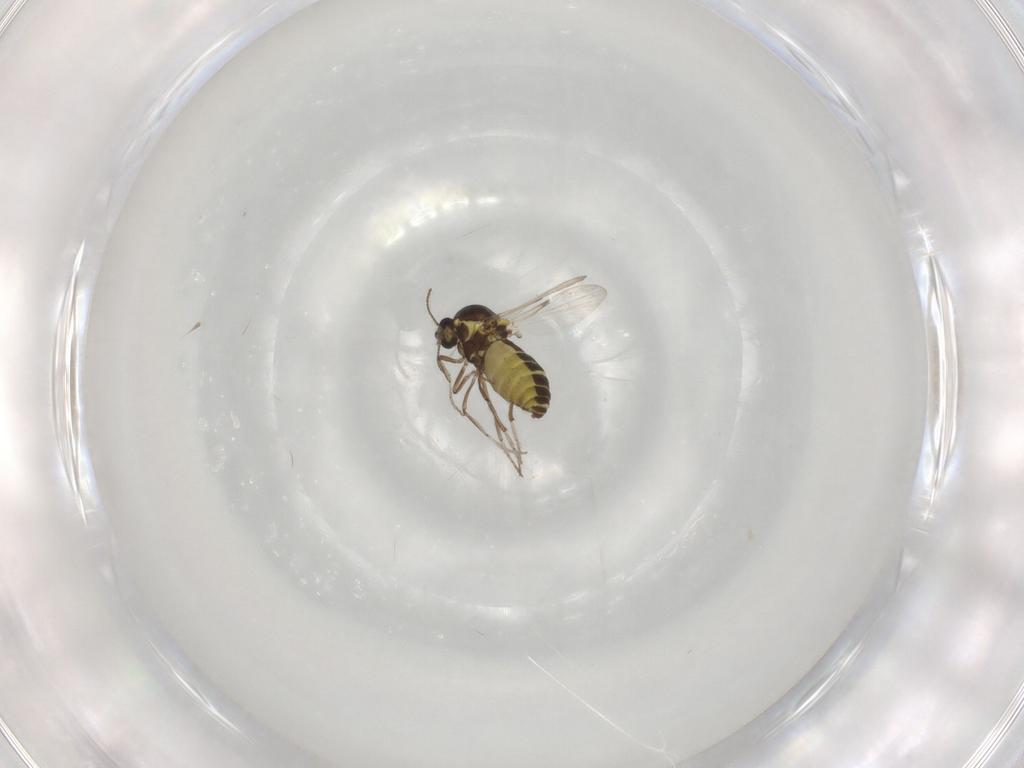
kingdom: Animalia
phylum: Arthropoda
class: Insecta
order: Diptera
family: Ceratopogonidae
